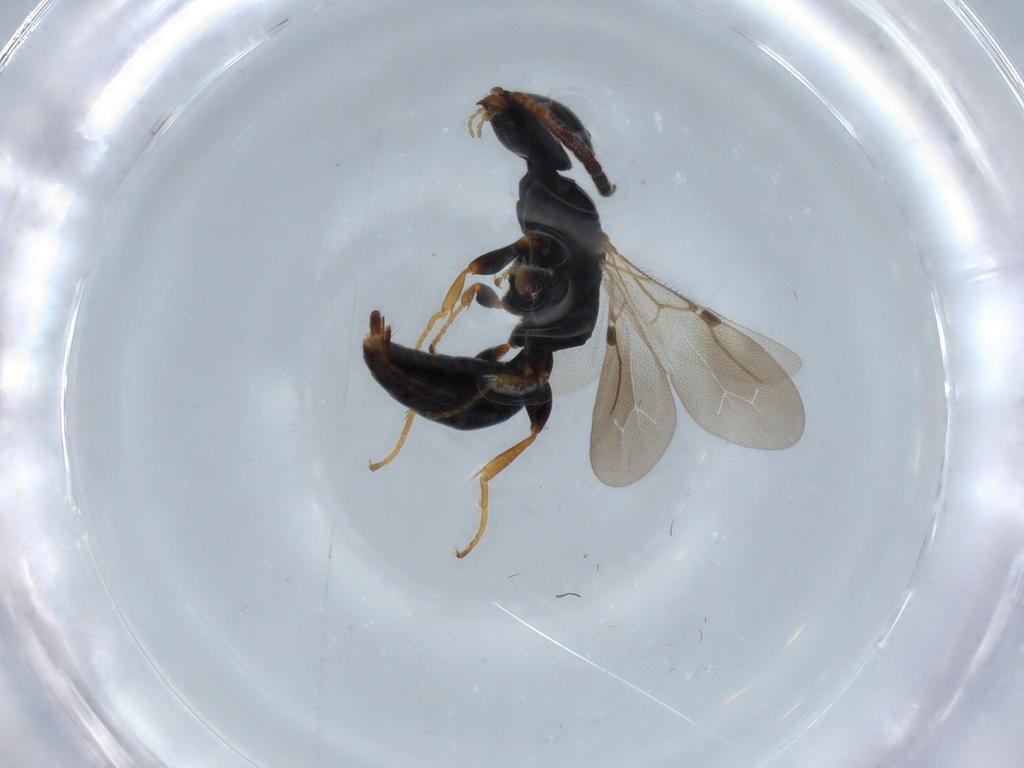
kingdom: Animalia
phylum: Arthropoda
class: Insecta
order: Hymenoptera
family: Bethylidae
